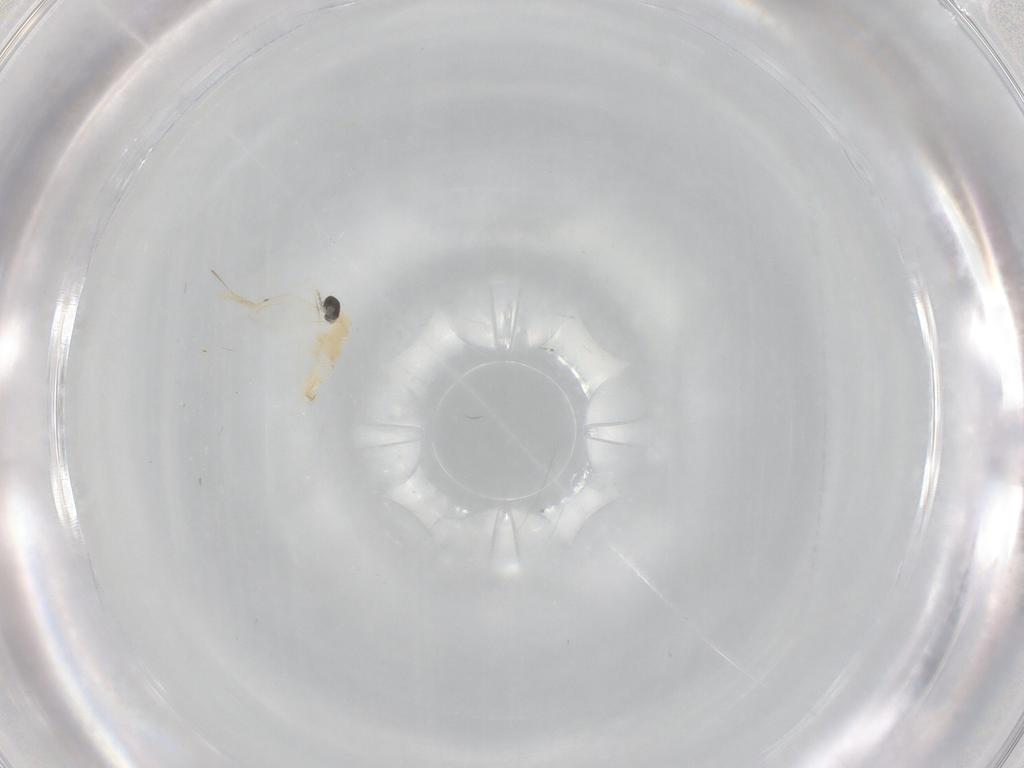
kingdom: Animalia
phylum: Arthropoda
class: Insecta
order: Diptera
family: Cecidomyiidae
